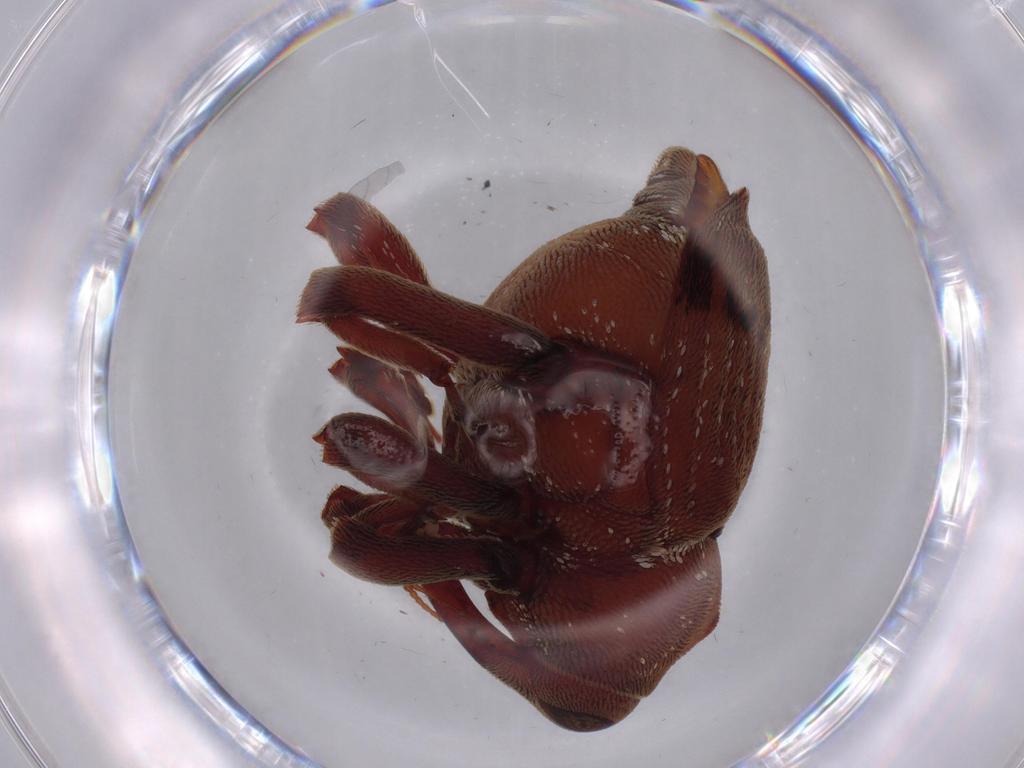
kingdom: Animalia
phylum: Arthropoda
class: Insecta
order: Coleoptera
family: Curculionidae
